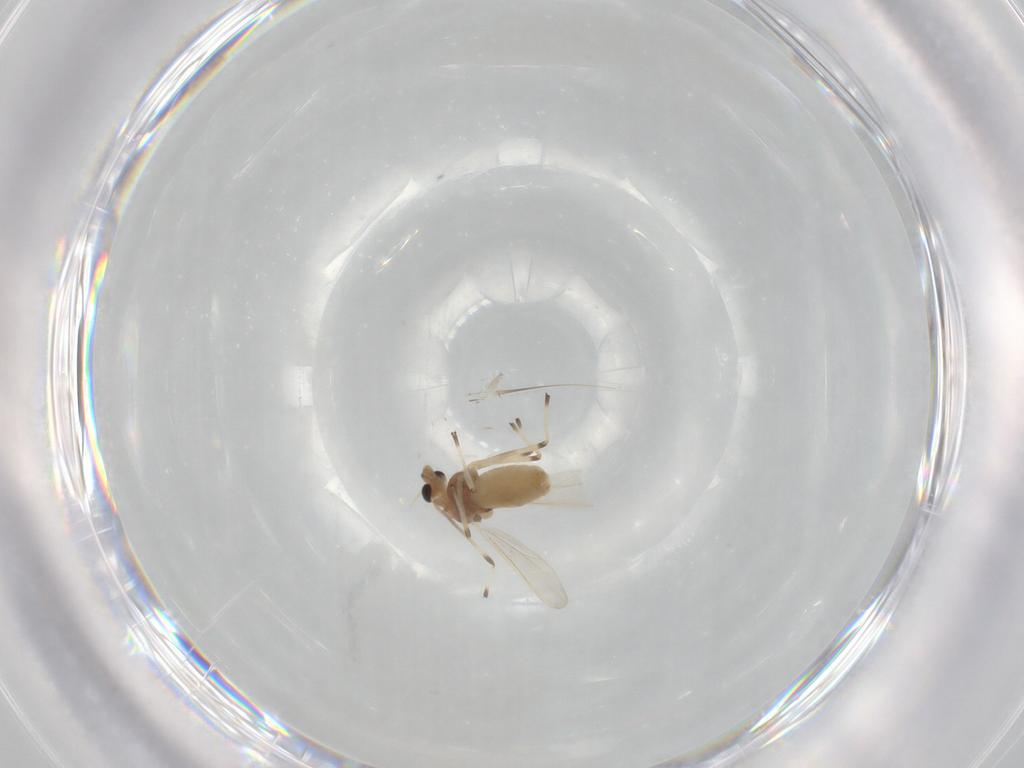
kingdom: Animalia
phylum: Arthropoda
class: Insecta
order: Diptera
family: Chironomidae
